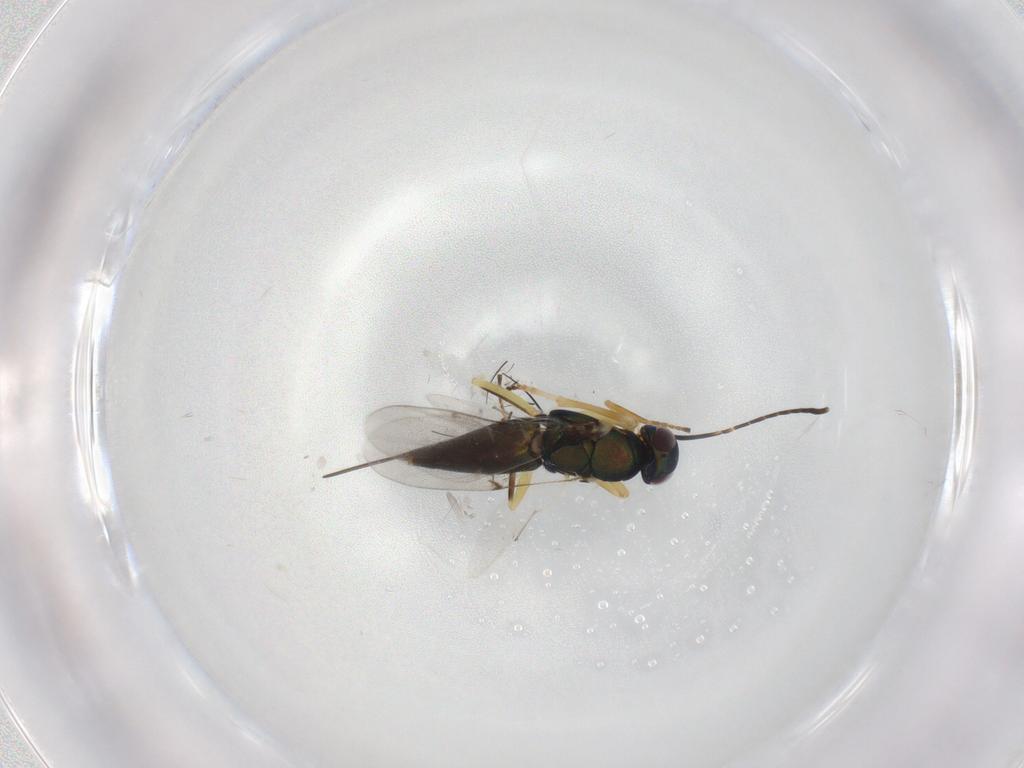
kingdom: Animalia
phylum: Arthropoda
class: Insecta
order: Hymenoptera
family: Encyrtidae
